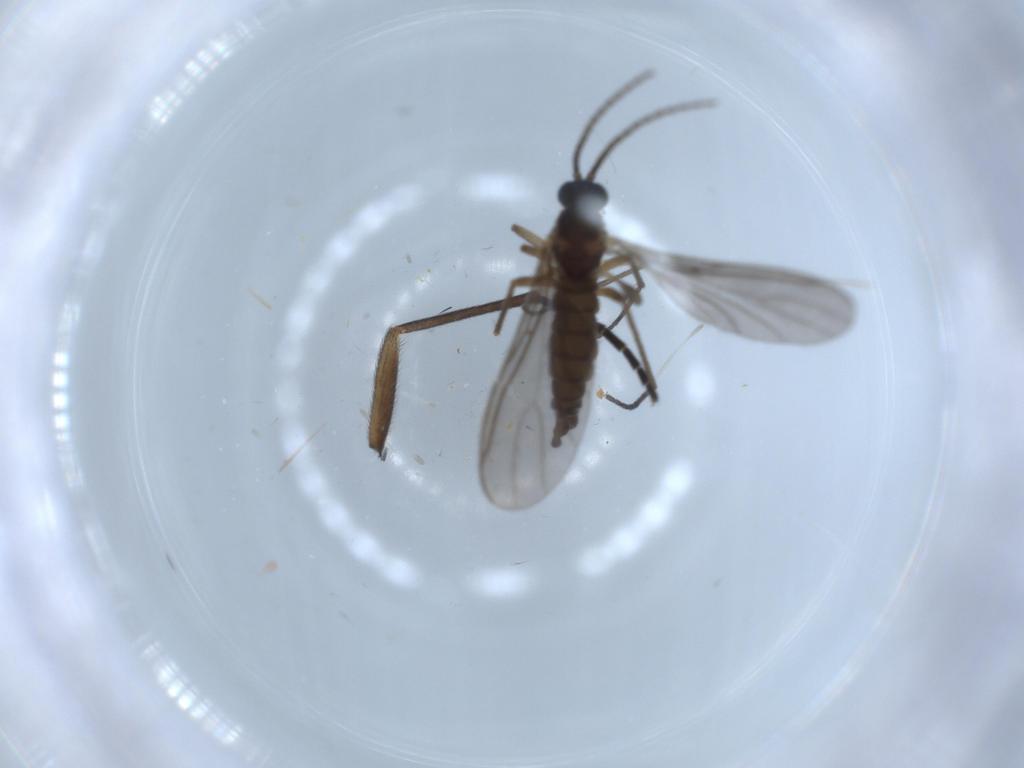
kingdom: Animalia
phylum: Arthropoda
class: Insecta
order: Diptera
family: Sciaridae
